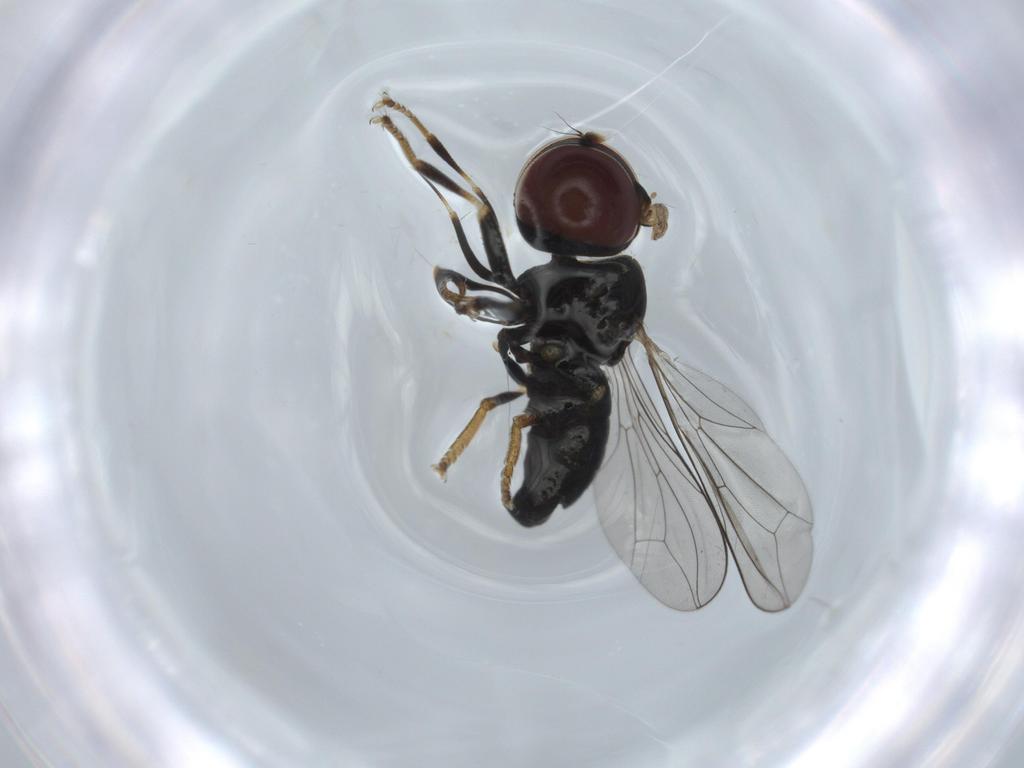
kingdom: Animalia
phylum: Arthropoda
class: Insecta
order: Diptera
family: Pipunculidae
